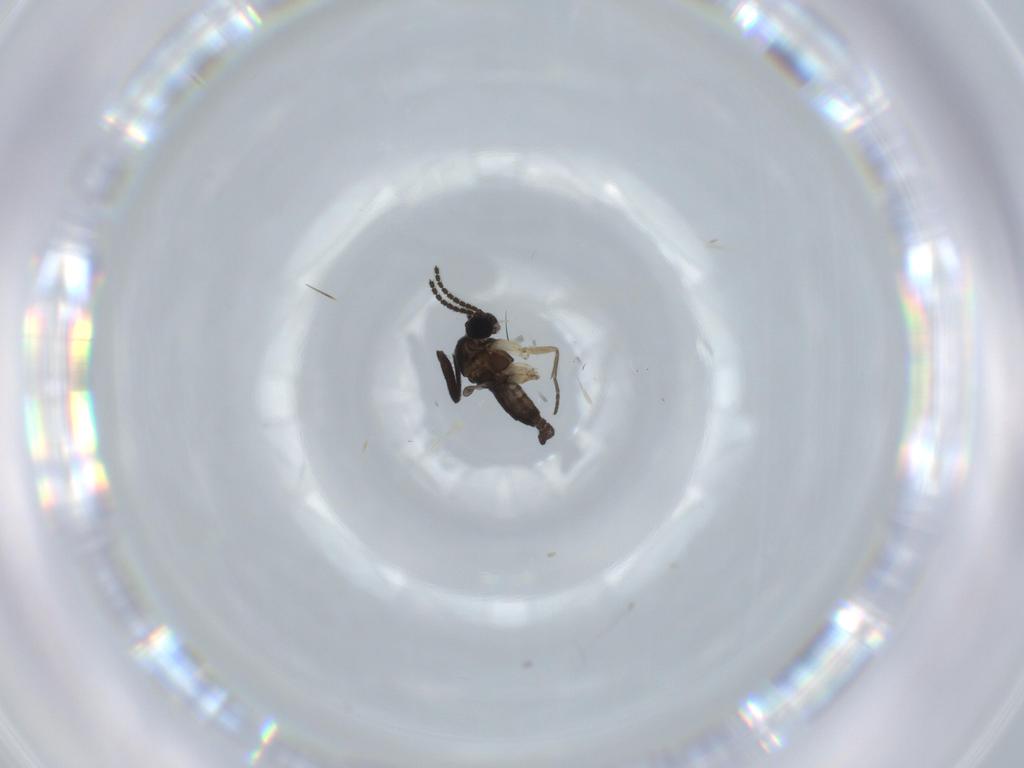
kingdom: Animalia
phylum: Arthropoda
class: Insecta
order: Diptera
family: Sciaridae
